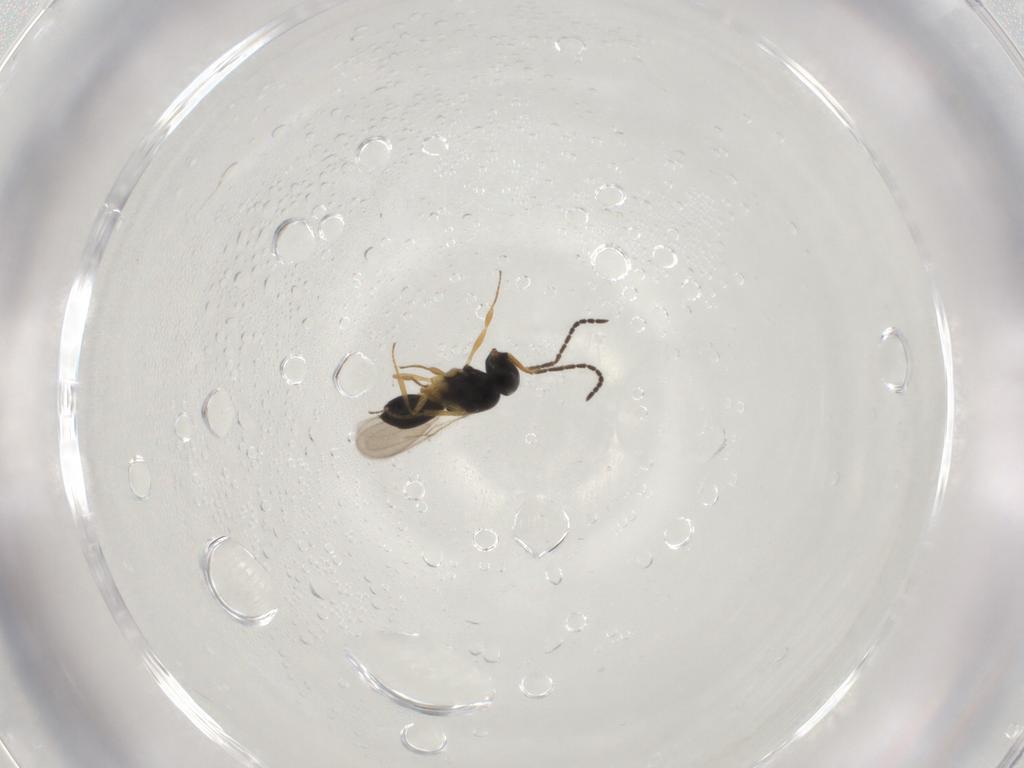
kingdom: Animalia
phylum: Arthropoda
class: Insecta
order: Hymenoptera
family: Scelionidae
